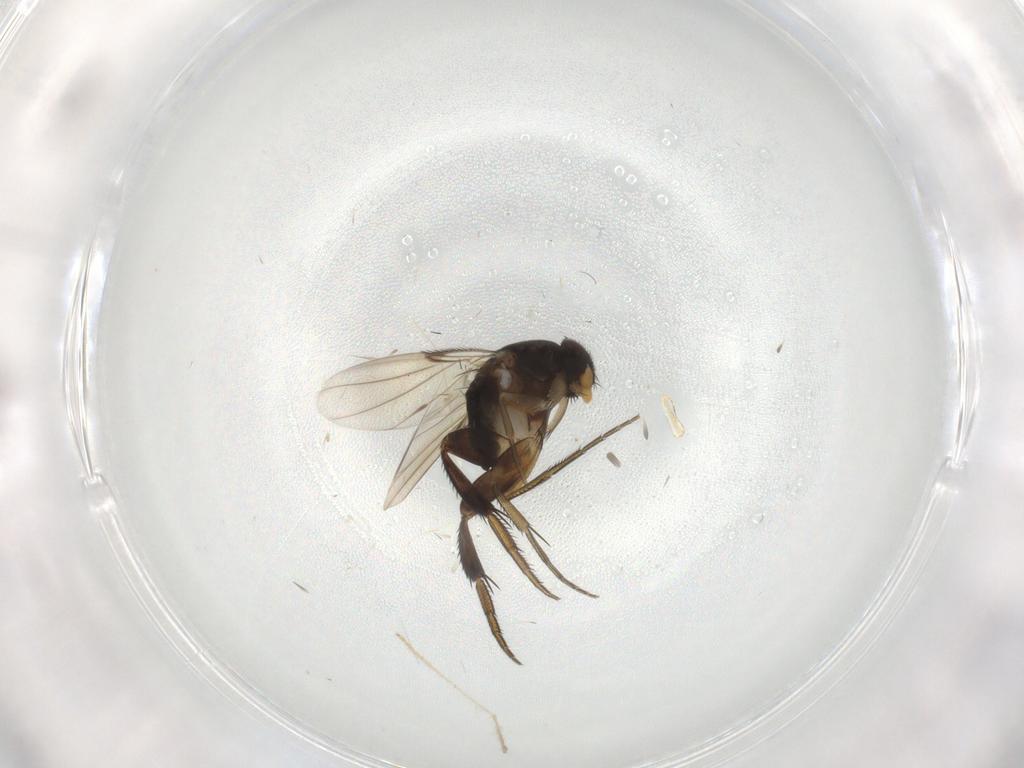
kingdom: Animalia
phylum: Arthropoda
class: Insecta
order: Diptera
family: Phoridae
